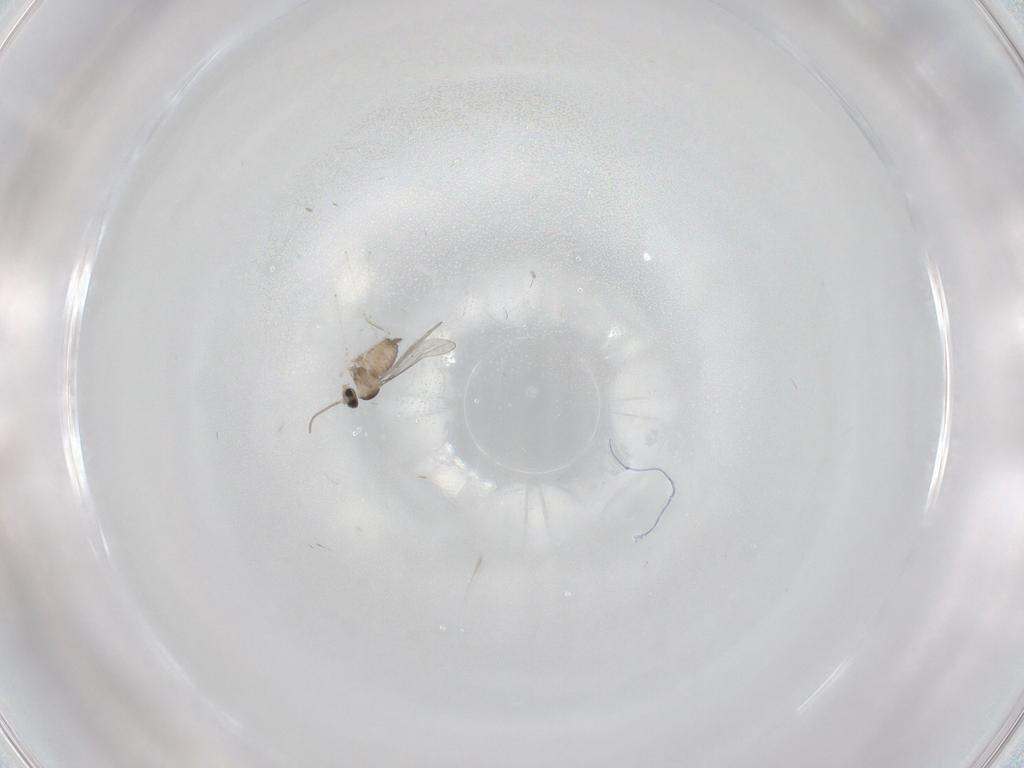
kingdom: Animalia
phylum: Arthropoda
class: Insecta
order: Diptera
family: Cecidomyiidae
